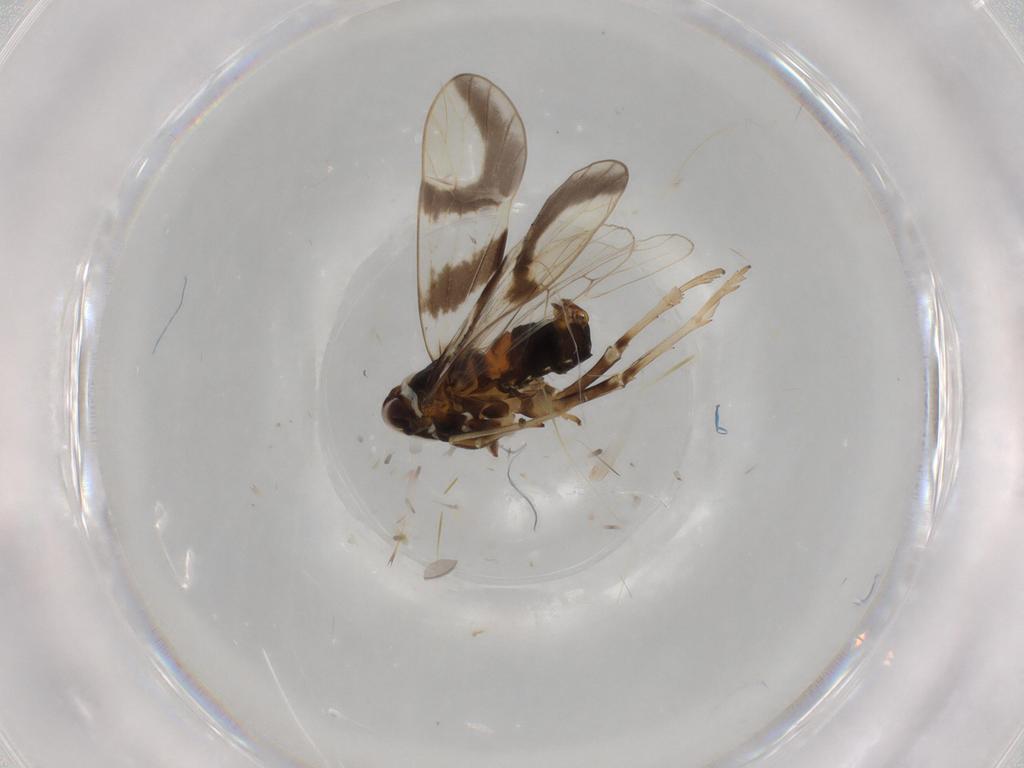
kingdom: Animalia
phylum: Arthropoda
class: Insecta
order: Hemiptera
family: Delphacidae
